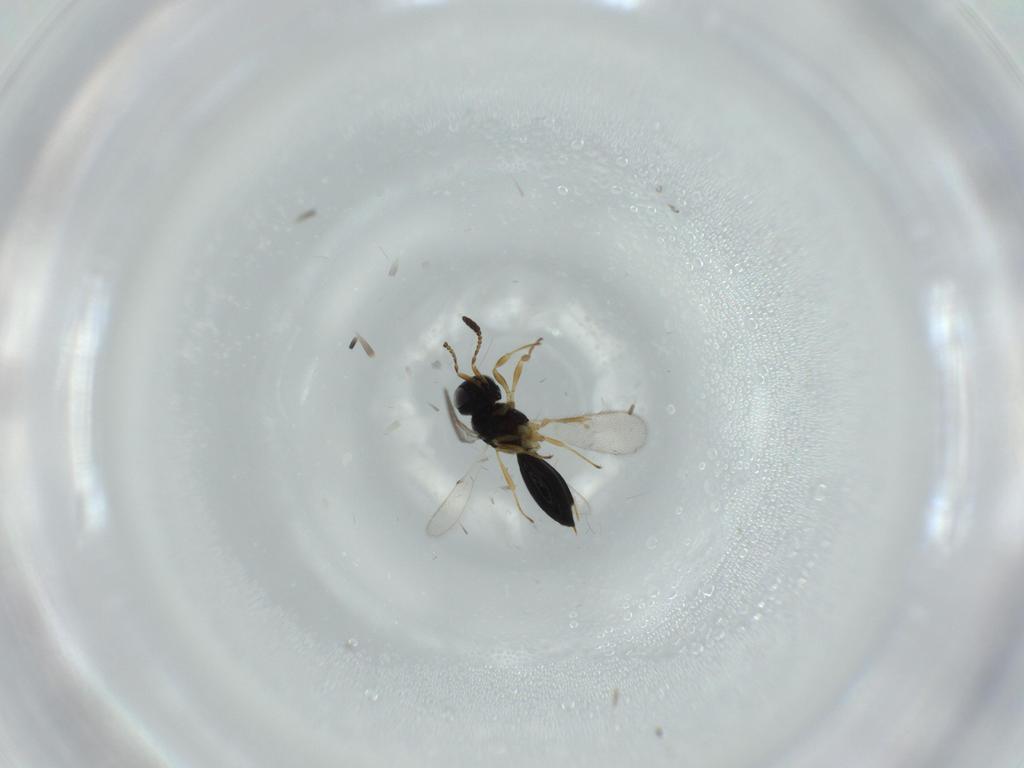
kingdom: Animalia
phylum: Arthropoda
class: Insecta
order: Hymenoptera
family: Scelionidae
